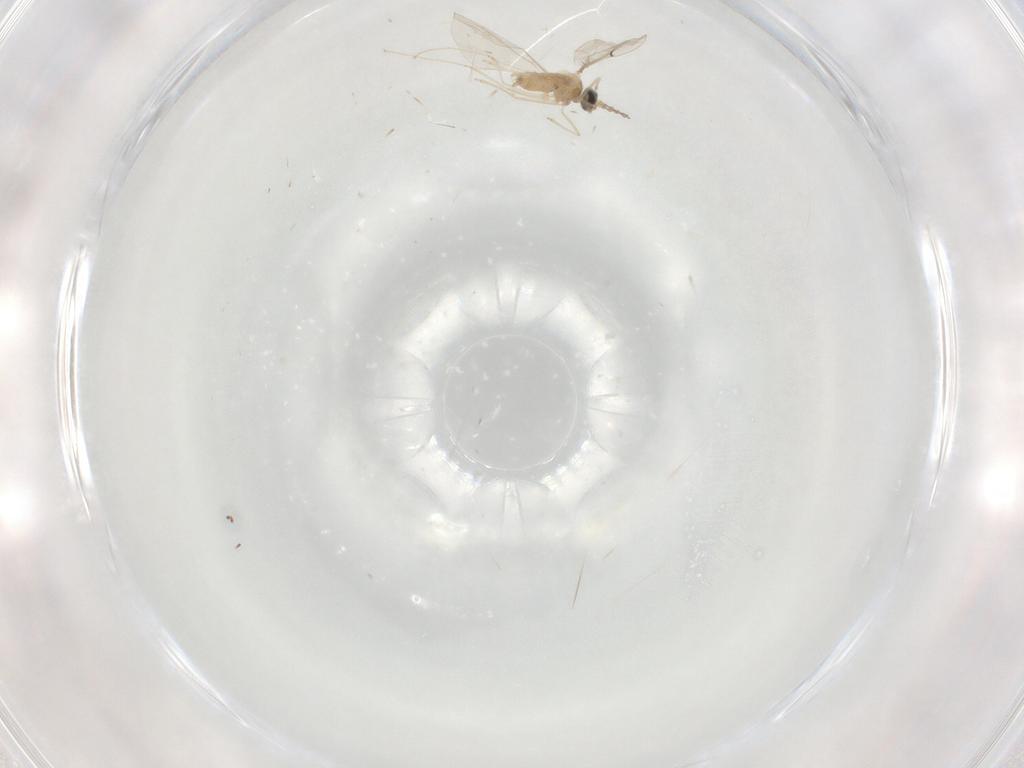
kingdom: Animalia
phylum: Arthropoda
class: Insecta
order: Diptera
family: Cecidomyiidae
